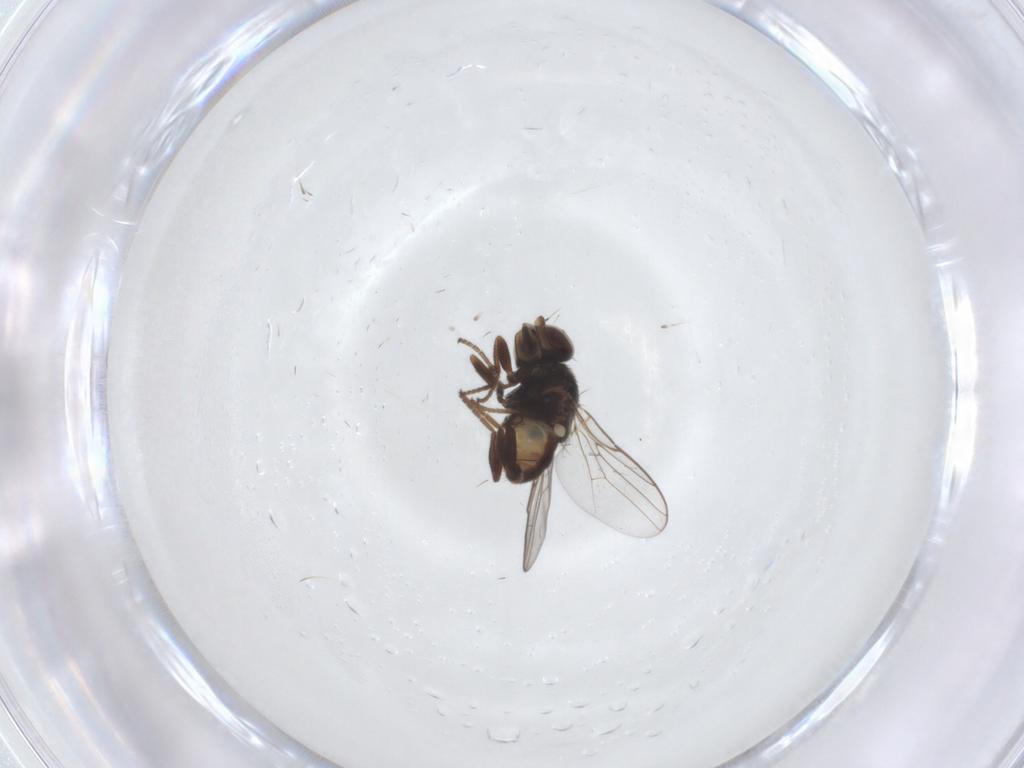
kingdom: Animalia
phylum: Arthropoda
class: Insecta
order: Diptera
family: Chloropidae
